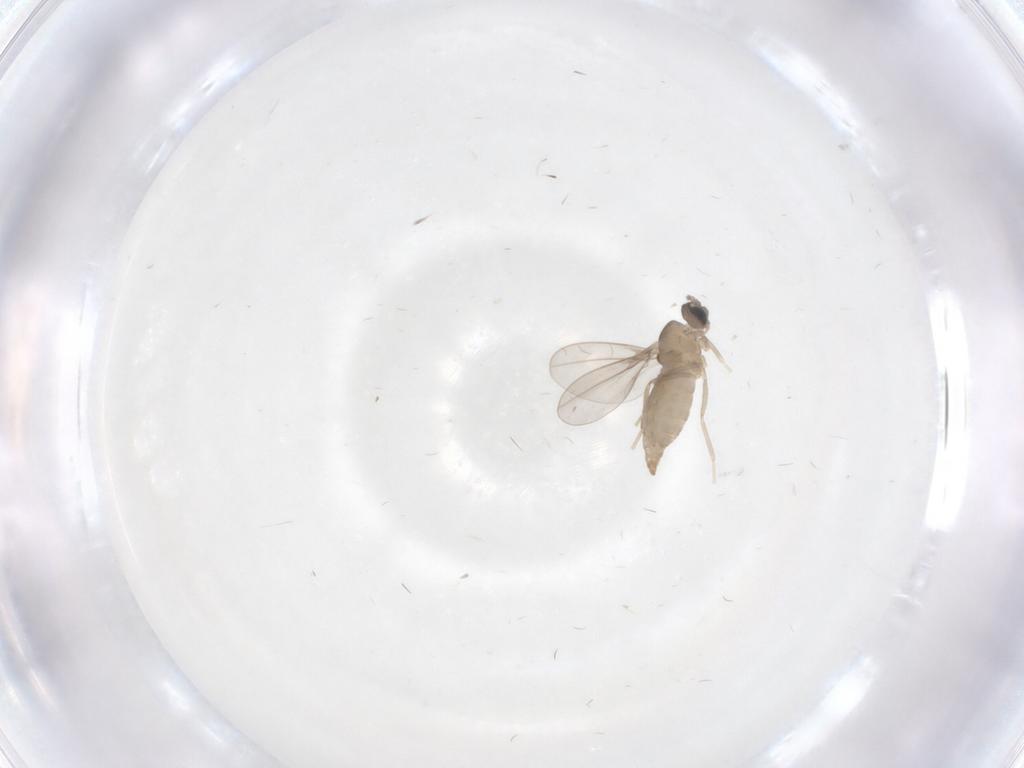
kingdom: Animalia
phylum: Arthropoda
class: Insecta
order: Diptera
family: Cecidomyiidae
